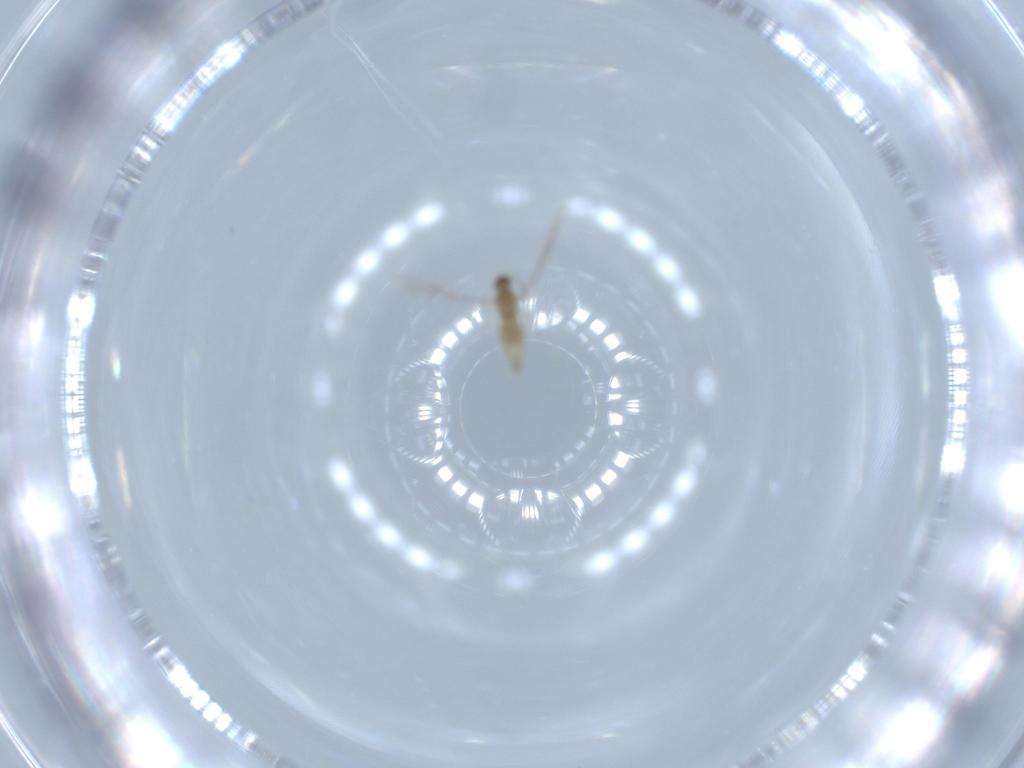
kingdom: Animalia
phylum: Arthropoda
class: Insecta
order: Diptera
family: Cecidomyiidae
